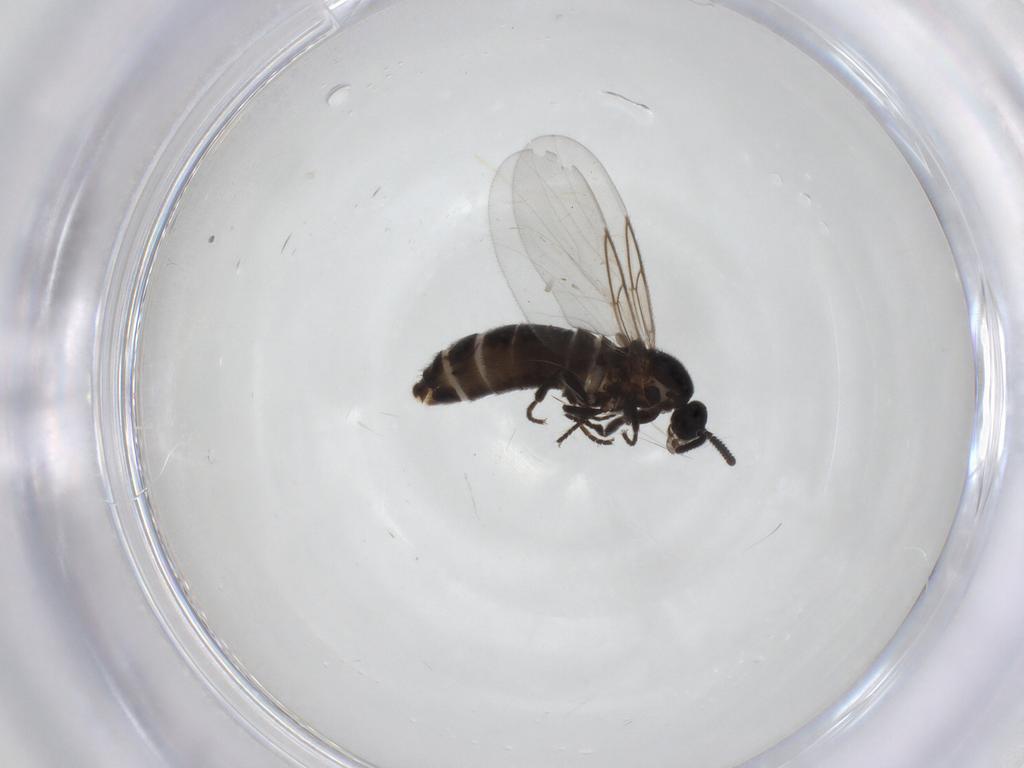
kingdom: Animalia
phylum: Arthropoda
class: Insecta
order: Diptera
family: Scatopsidae
